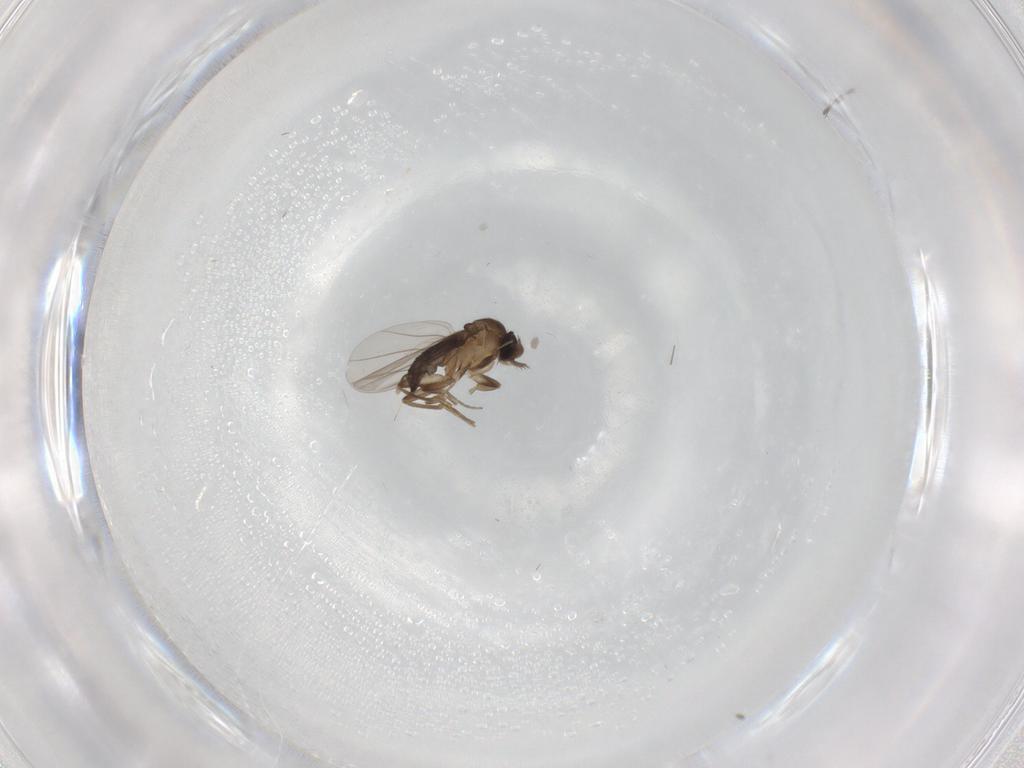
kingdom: Animalia
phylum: Arthropoda
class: Insecta
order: Diptera
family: Phoridae
